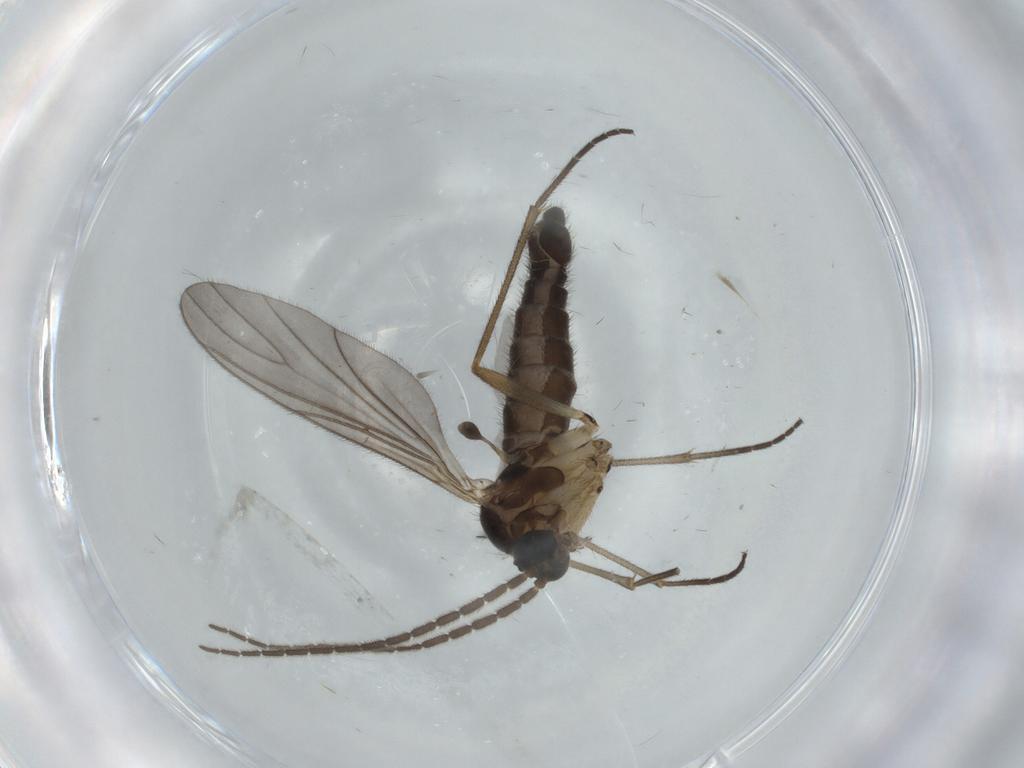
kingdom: Animalia
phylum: Arthropoda
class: Insecta
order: Diptera
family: Sciaridae
